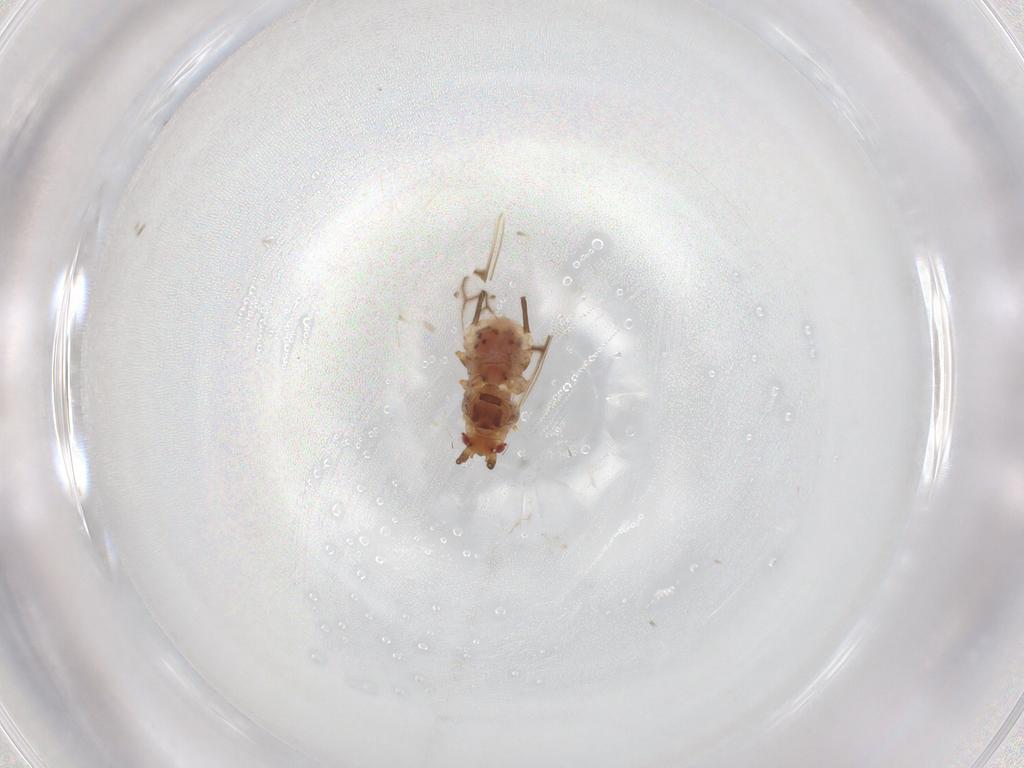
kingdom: Animalia
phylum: Arthropoda
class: Insecta
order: Hemiptera
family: Aphididae
